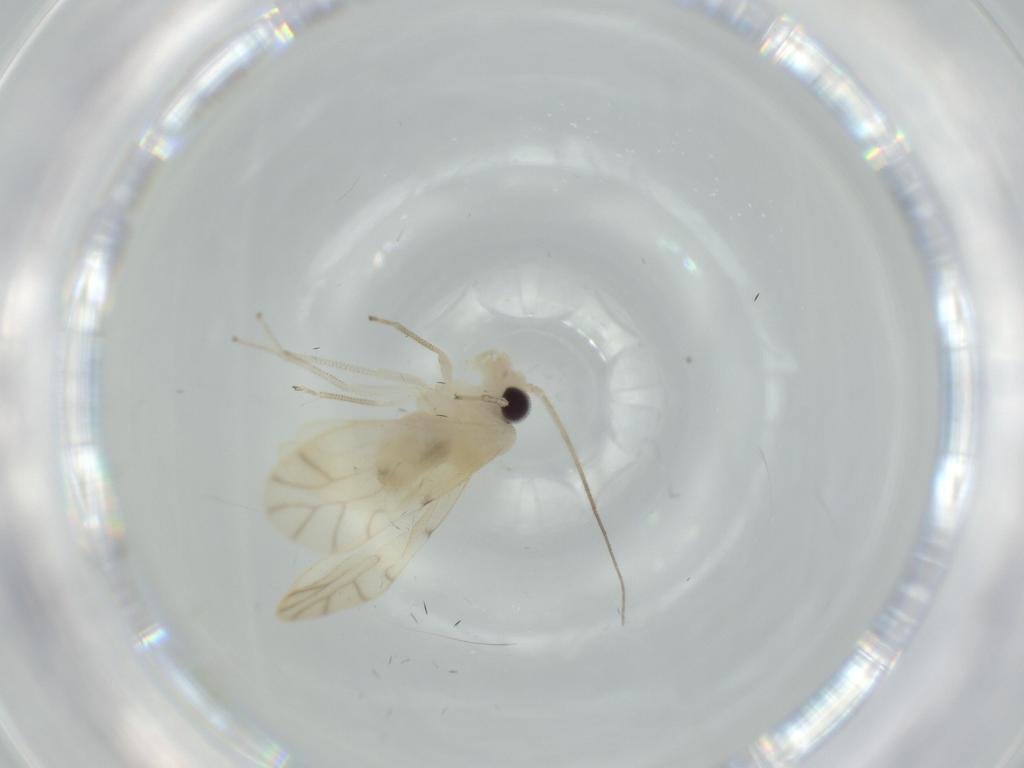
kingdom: Animalia
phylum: Arthropoda
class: Insecta
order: Psocodea
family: Caeciliusidae
